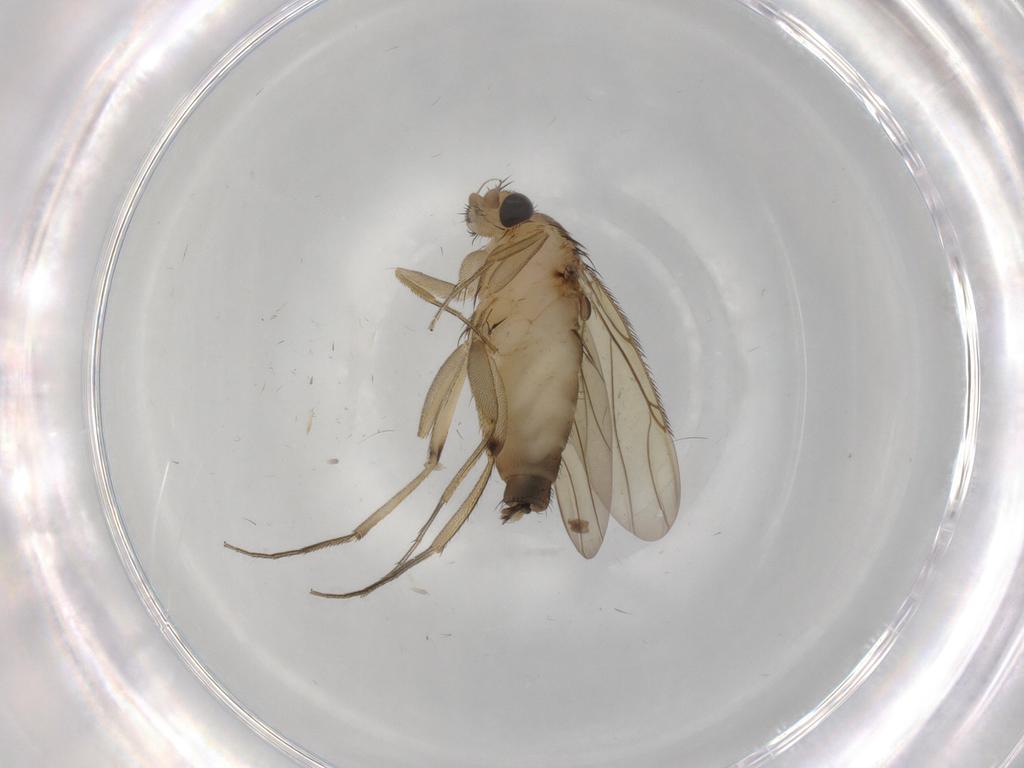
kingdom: Animalia
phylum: Arthropoda
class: Insecta
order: Diptera
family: Phoridae
